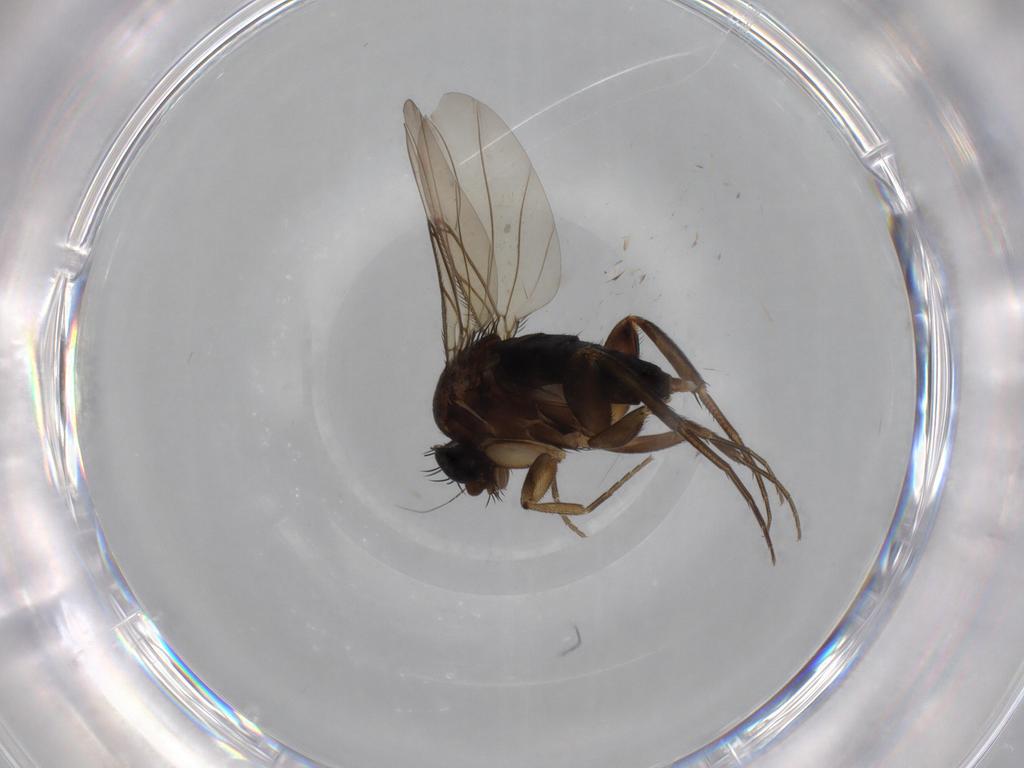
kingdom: Animalia
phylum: Arthropoda
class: Insecta
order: Diptera
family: Phoridae
